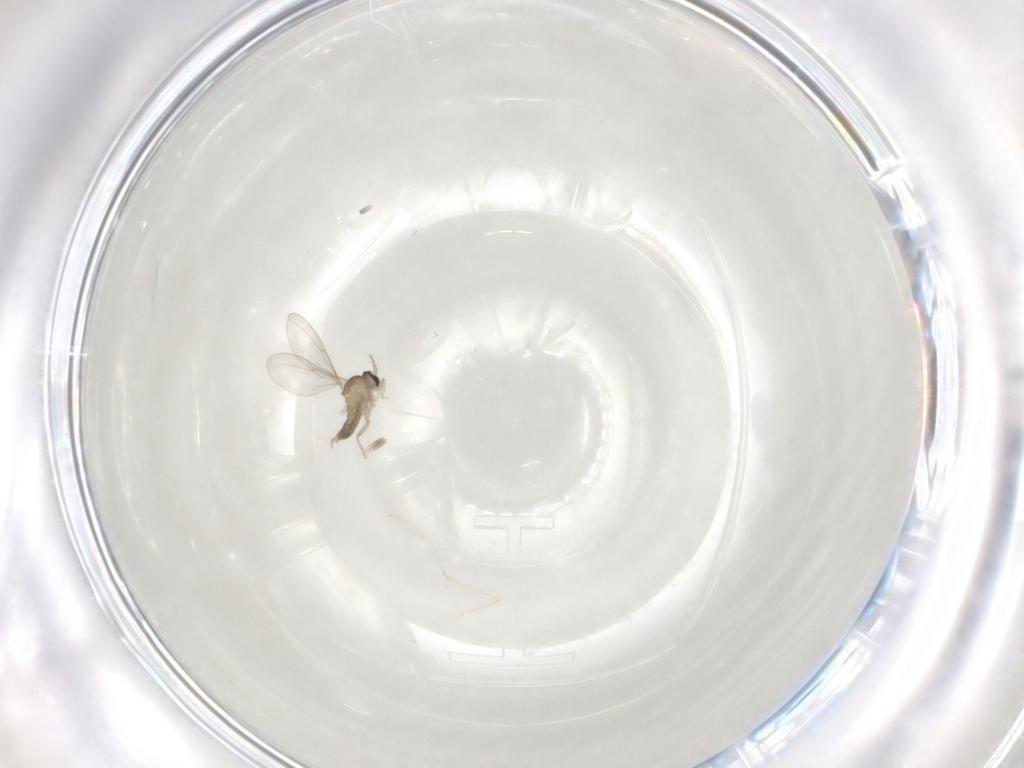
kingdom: Animalia
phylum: Arthropoda
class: Insecta
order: Diptera
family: Cecidomyiidae
